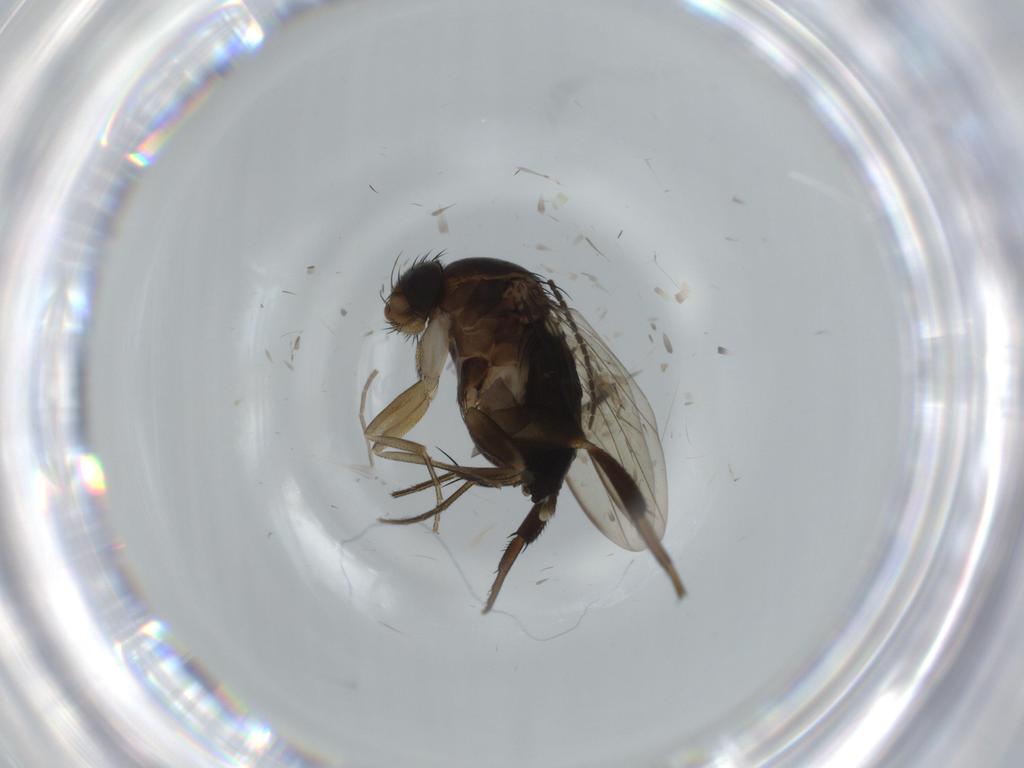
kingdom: Animalia
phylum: Arthropoda
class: Insecta
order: Diptera
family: Phoridae
